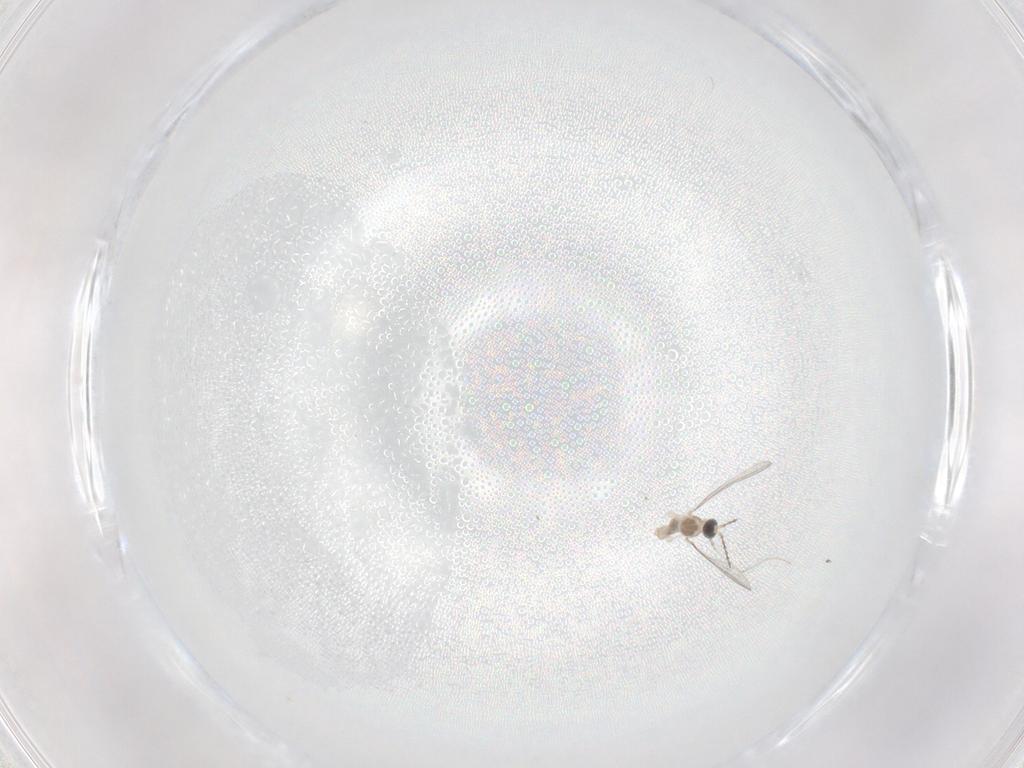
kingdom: Animalia
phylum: Arthropoda
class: Insecta
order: Diptera
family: Cecidomyiidae
